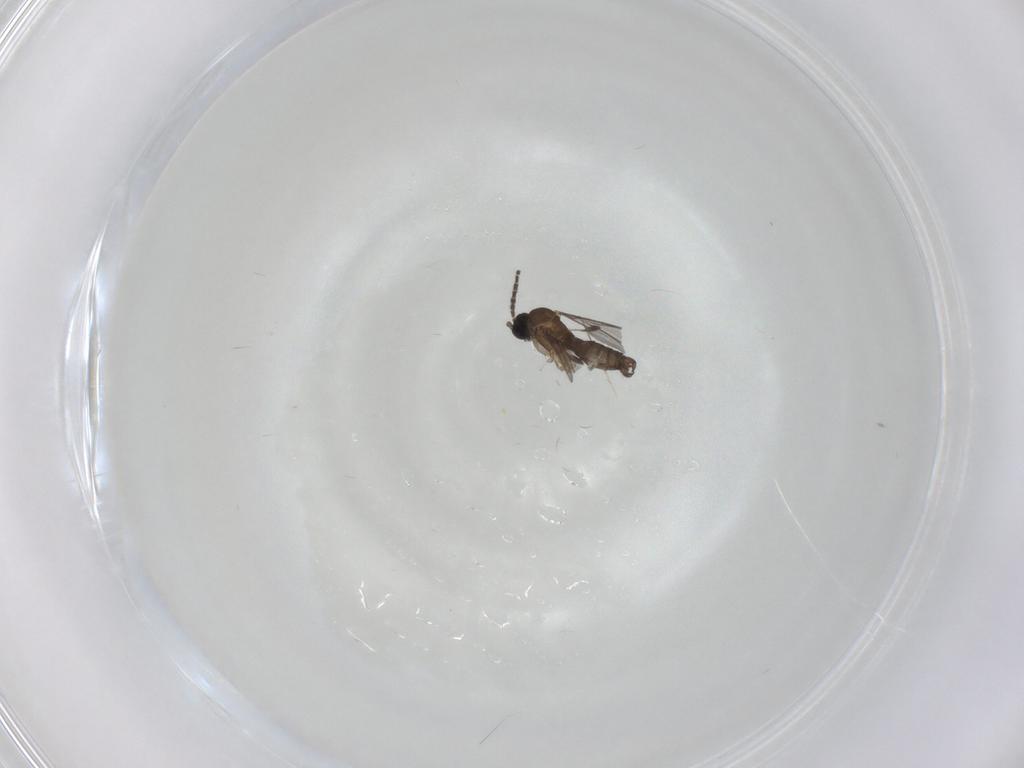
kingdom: Animalia
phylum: Arthropoda
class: Insecta
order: Diptera
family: Sciaridae
